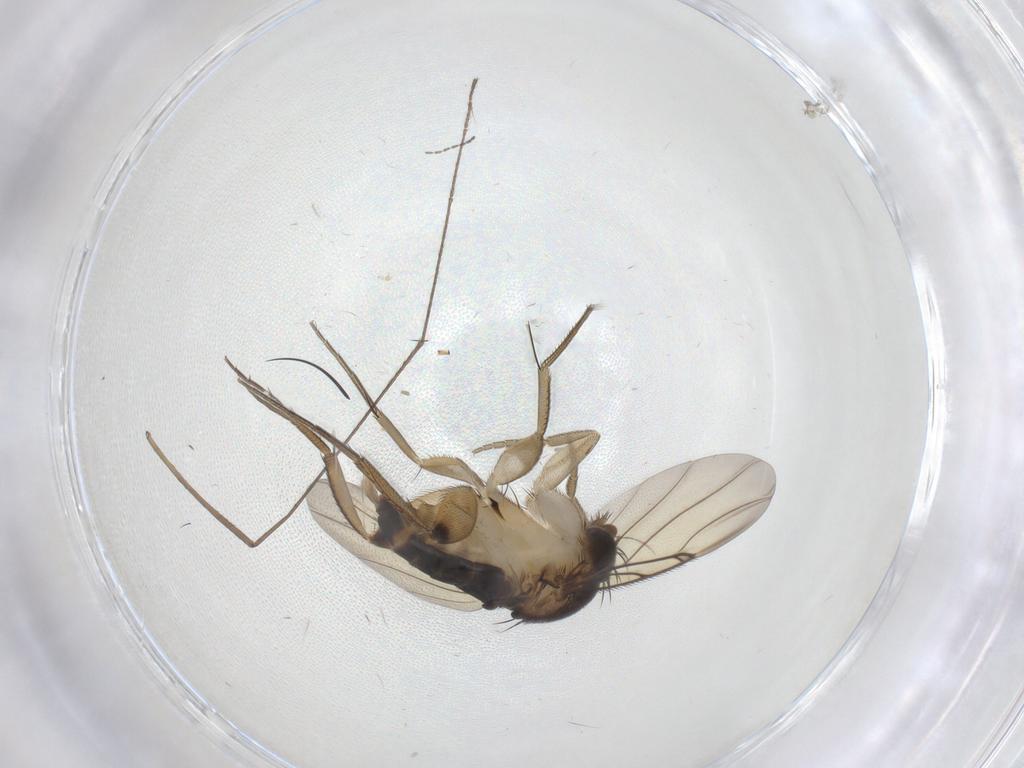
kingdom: Animalia
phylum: Arthropoda
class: Insecta
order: Diptera
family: Phoridae
